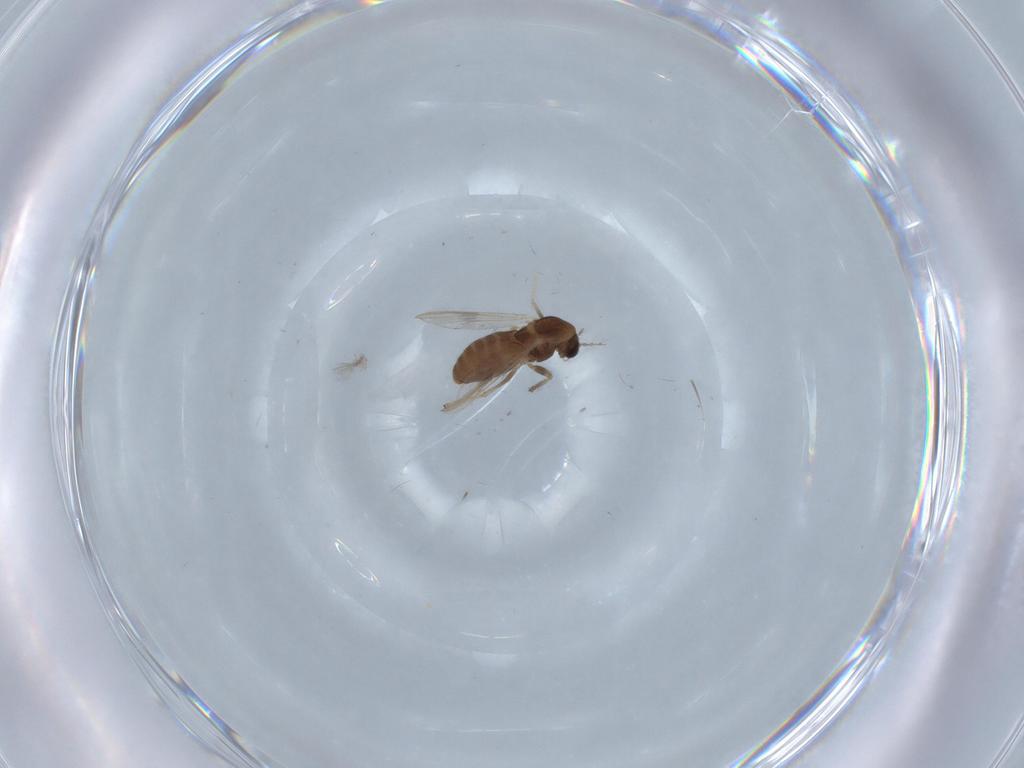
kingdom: Animalia
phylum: Arthropoda
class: Insecta
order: Diptera
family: Chironomidae
